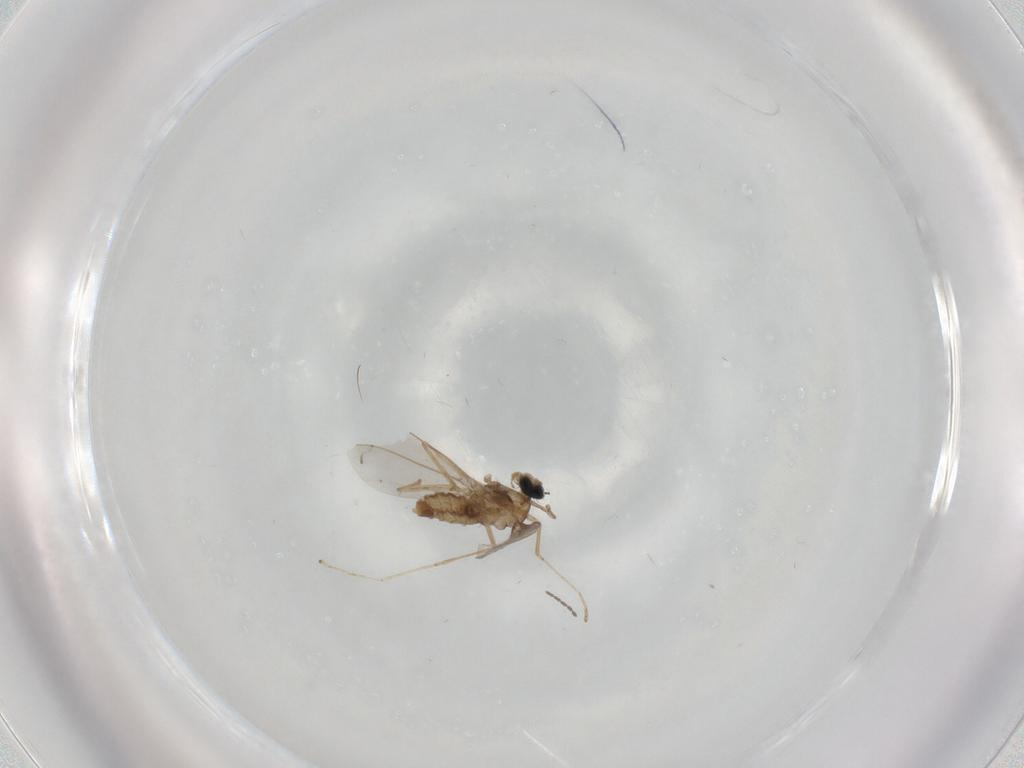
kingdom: Animalia
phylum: Arthropoda
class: Insecta
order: Diptera
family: Cecidomyiidae
